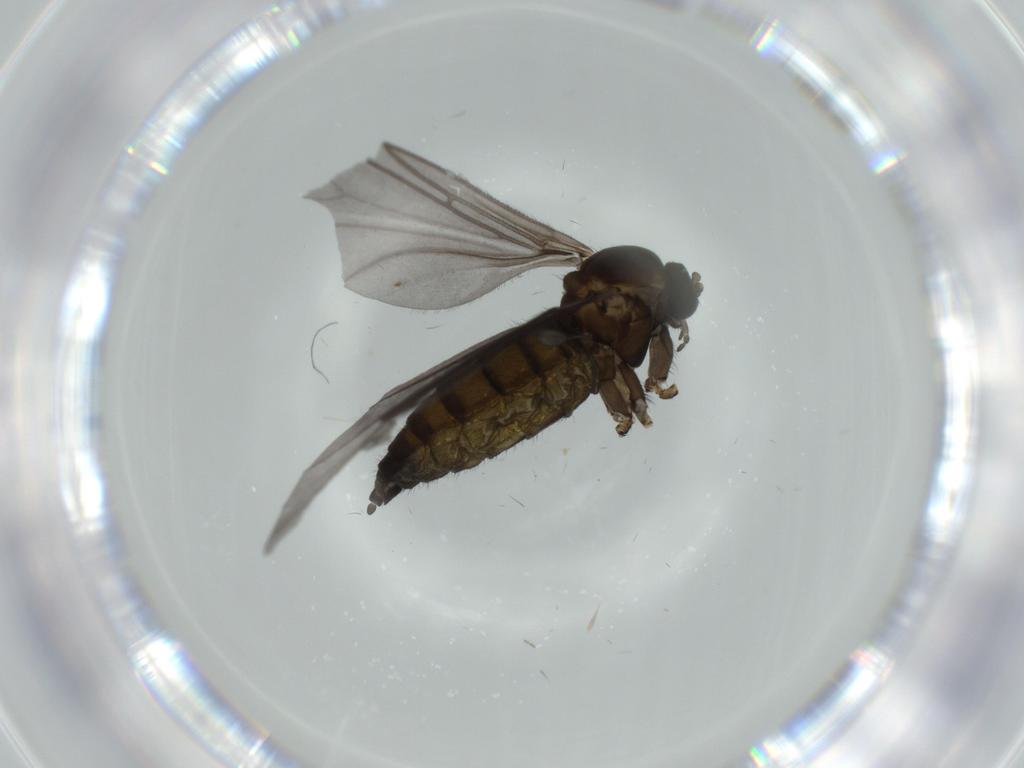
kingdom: Animalia
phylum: Arthropoda
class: Insecta
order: Diptera
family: Sciaridae
